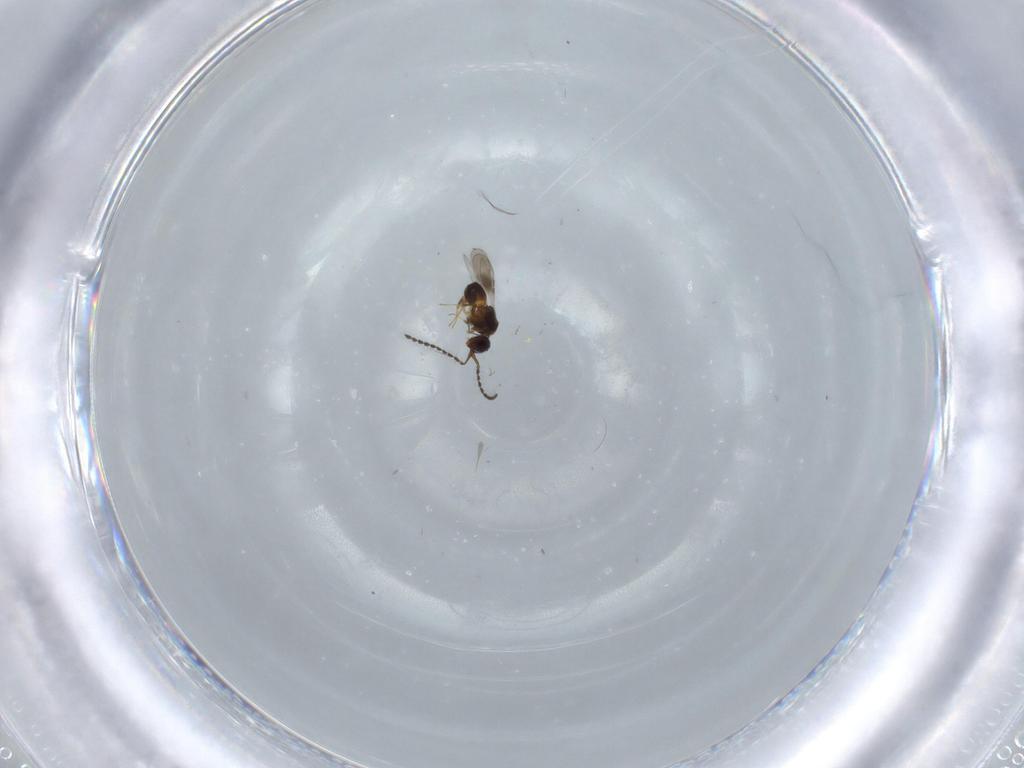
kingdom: Animalia
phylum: Arthropoda
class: Insecta
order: Hymenoptera
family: Ceraphronidae
